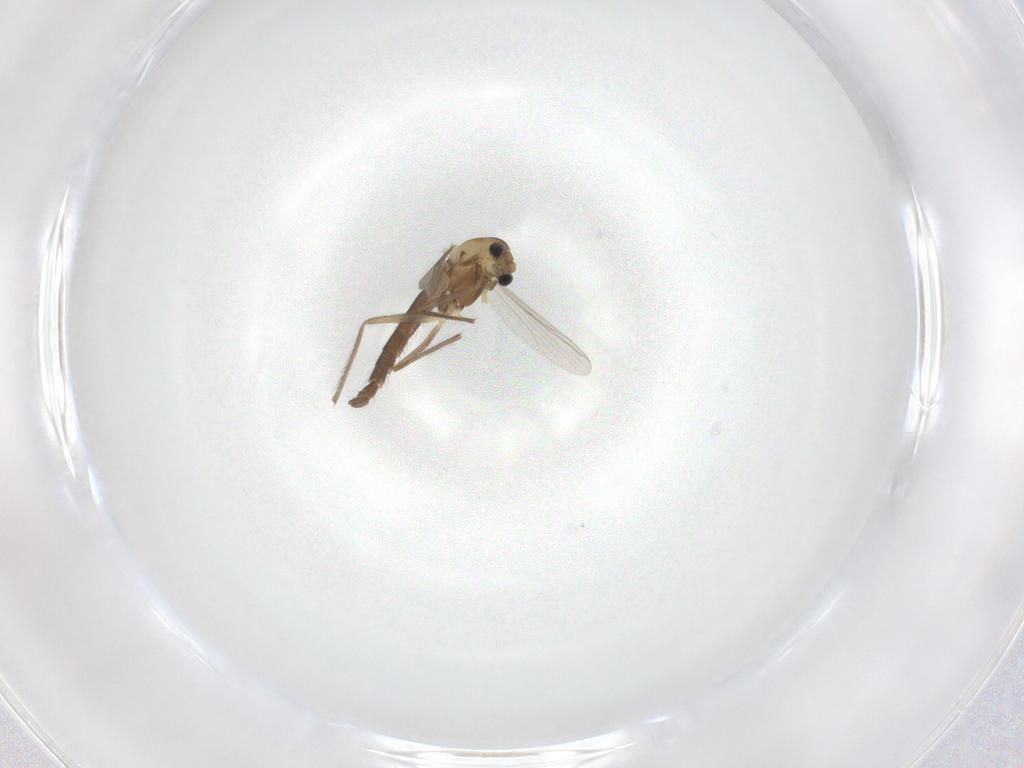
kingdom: Animalia
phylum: Arthropoda
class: Insecta
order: Diptera
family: Chironomidae
